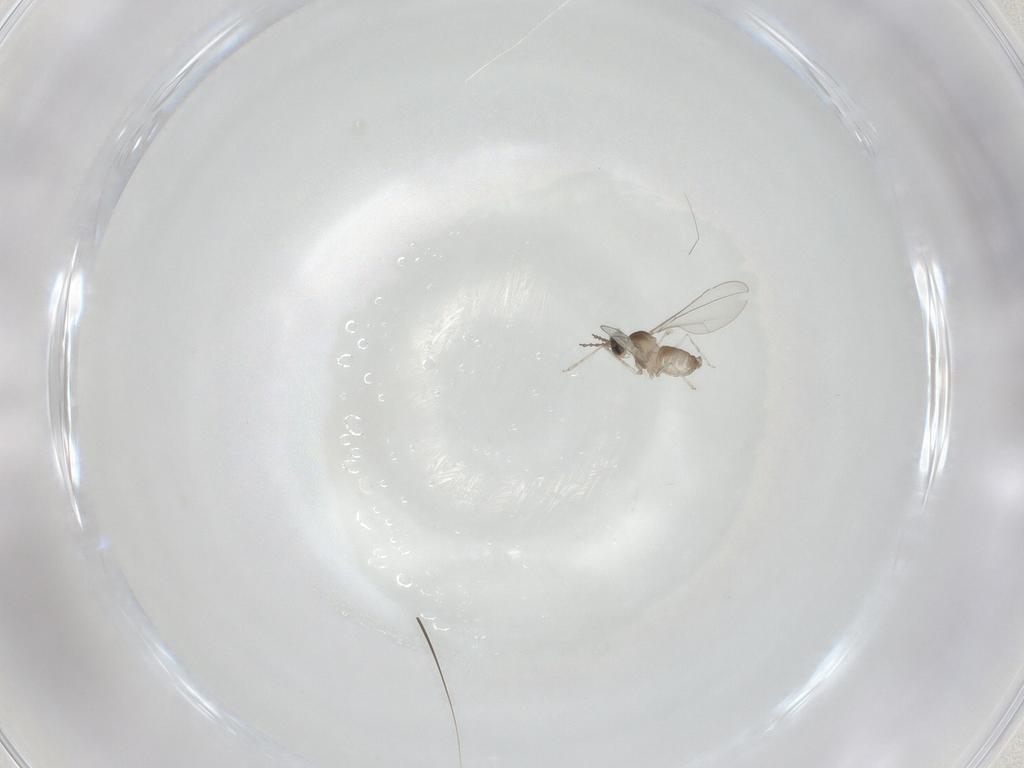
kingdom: Animalia
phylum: Arthropoda
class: Insecta
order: Diptera
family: Cecidomyiidae
